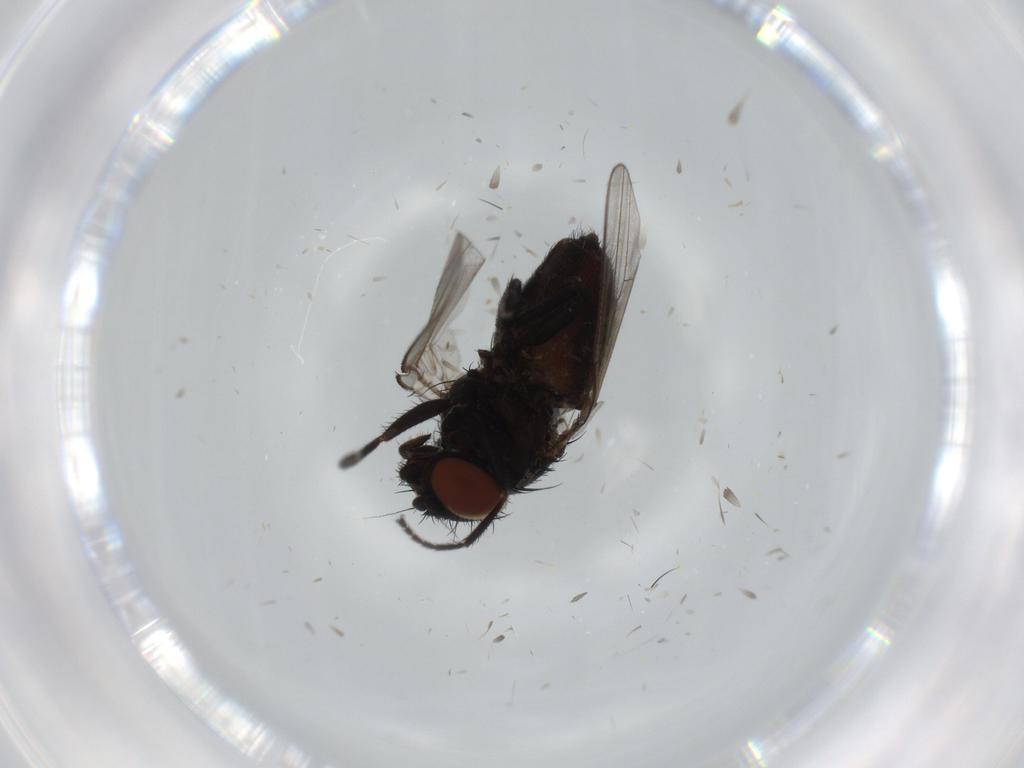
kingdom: Animalia
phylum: Arthropoda
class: Insecta
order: Diptera
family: Milichiidae
